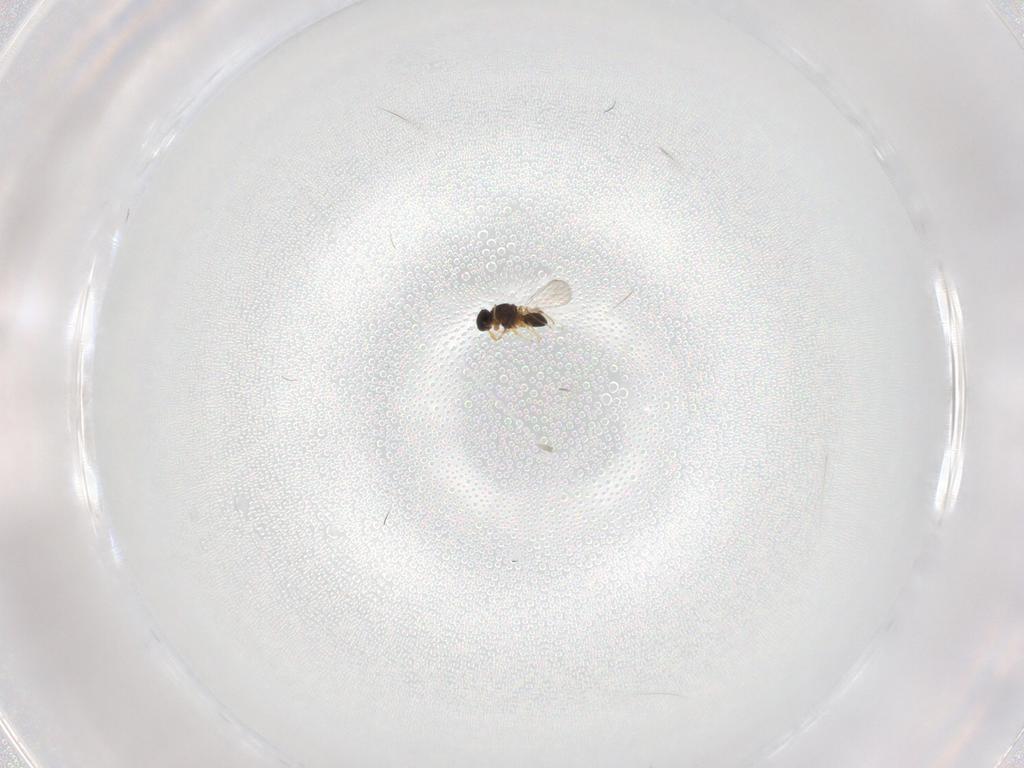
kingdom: Animalia
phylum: Arthropoda
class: Insecta
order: Hymenoptera
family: Platygastridae
